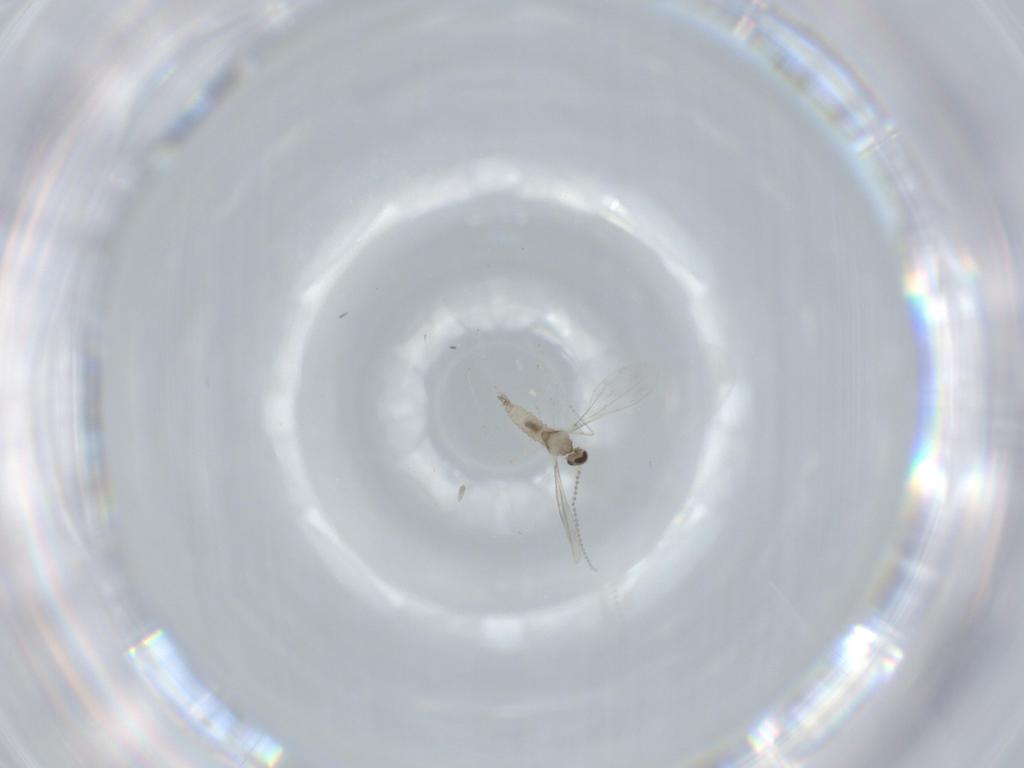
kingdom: Animalia
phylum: Arthropoda
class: Insecta
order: Diptera
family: Cecidomyiidae
